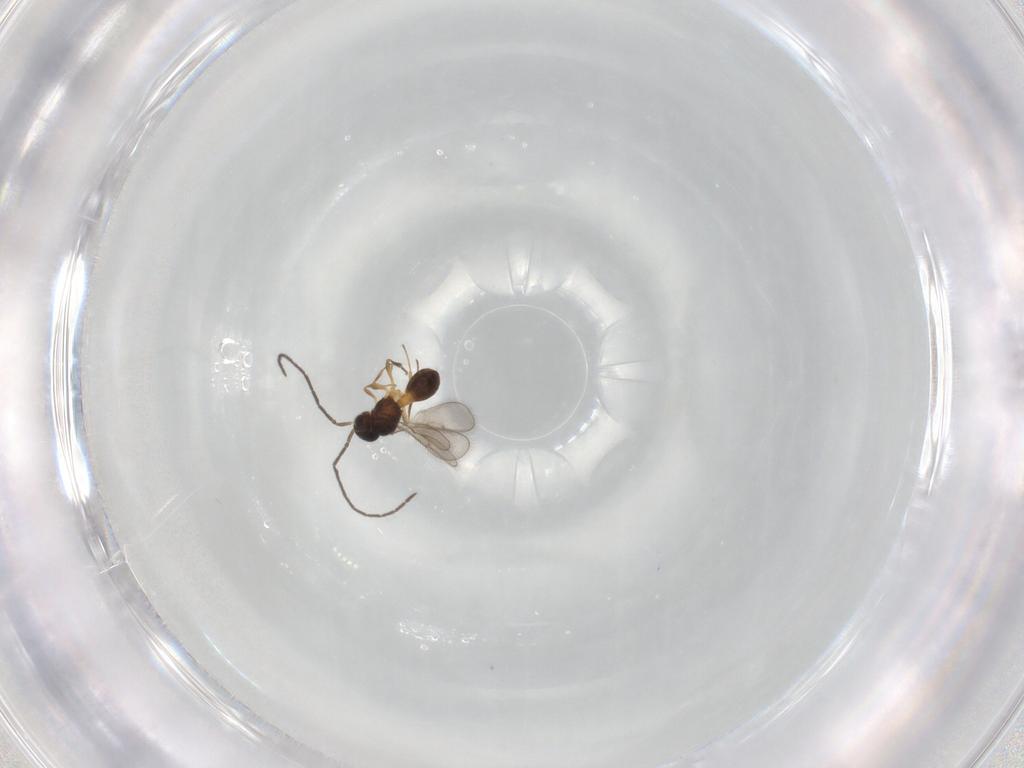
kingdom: Animalia
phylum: Arthropoda
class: Insecta
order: Hymenoptera
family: Scelionidae
